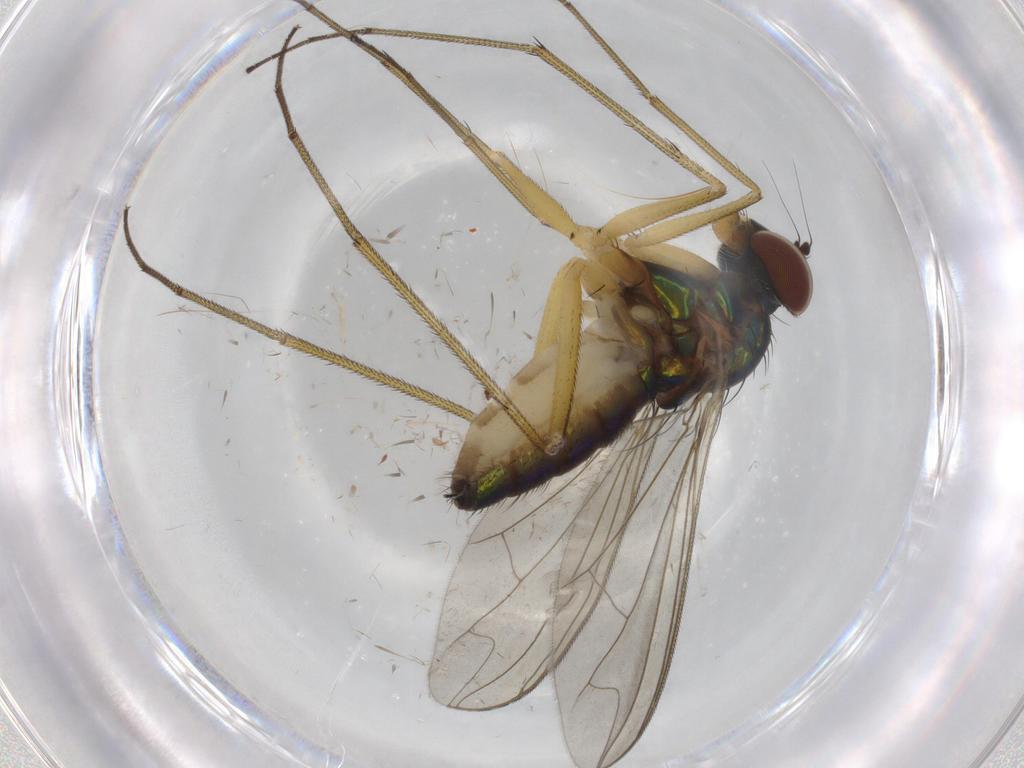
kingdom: Animalia
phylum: Arthropoda
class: Insecta
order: Diptera
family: Dolichopodidae
